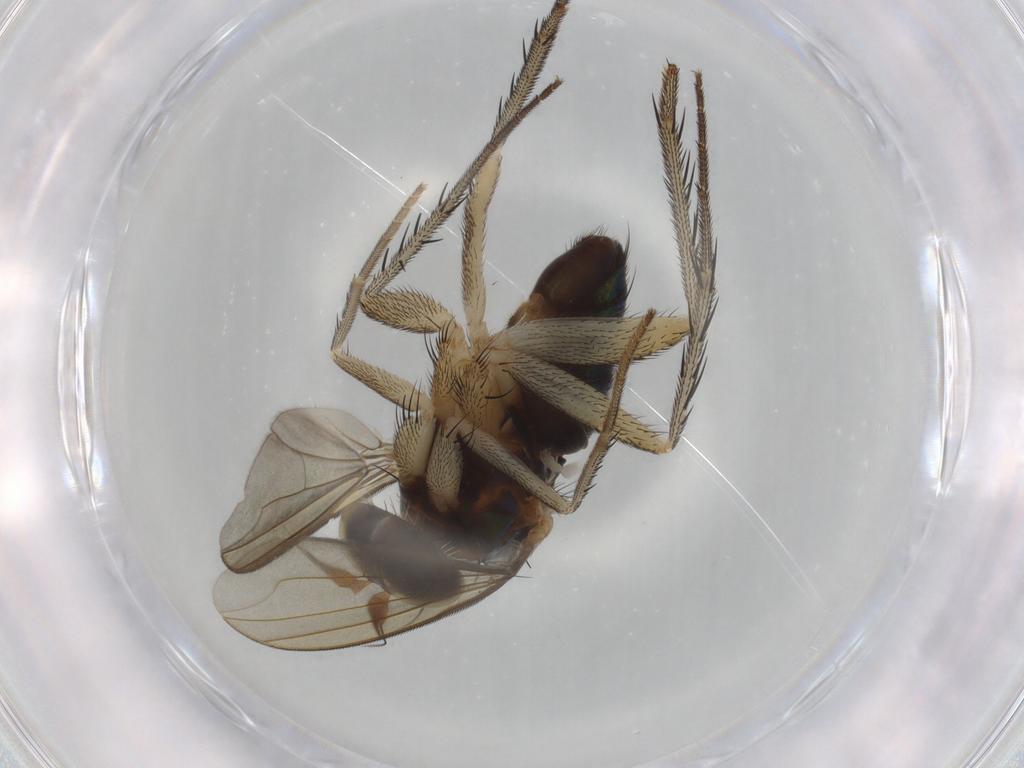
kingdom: Animalia
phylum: Arthropoda
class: Insecta
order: Diptera
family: Dolichopodidae
